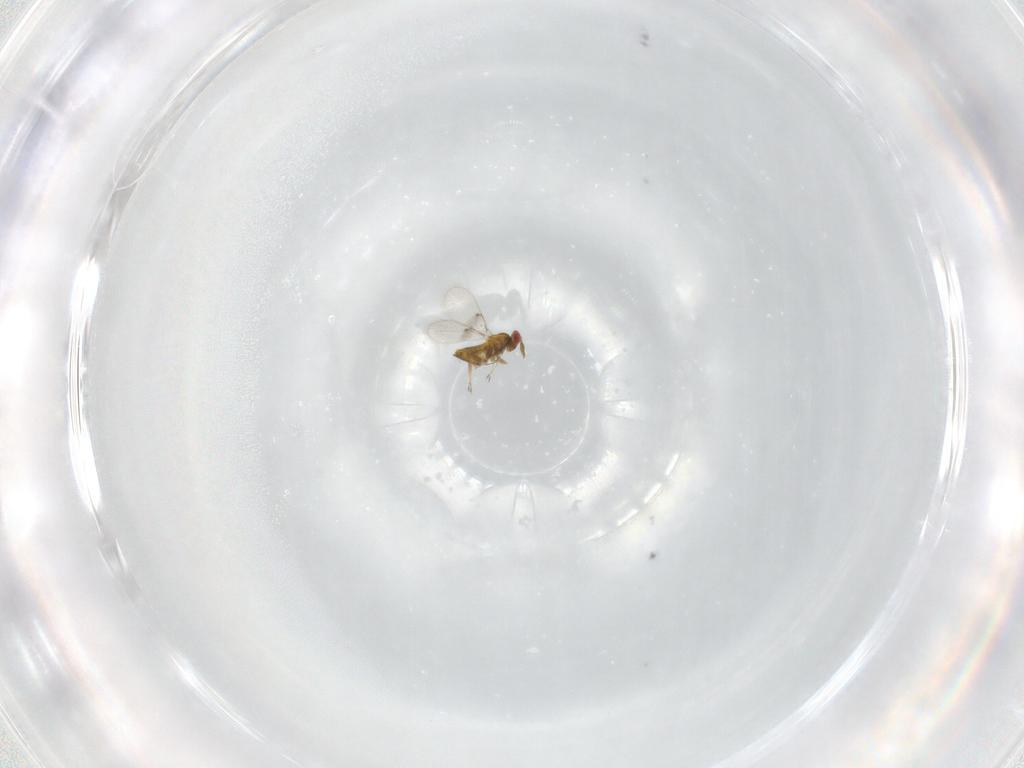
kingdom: Animalia
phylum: Arthropoda
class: Insecta
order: Hymenoptera
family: Trichogrammatidae
